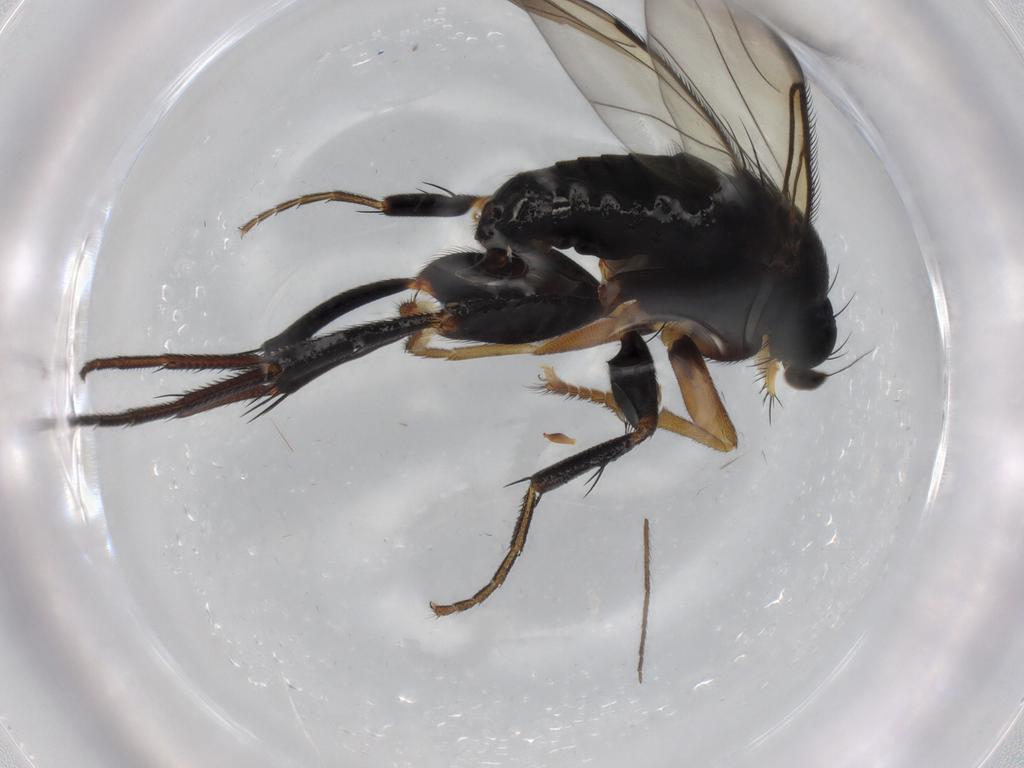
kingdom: Animalia
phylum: Arthropoda
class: Insecta
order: Diptera
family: Phoridae
